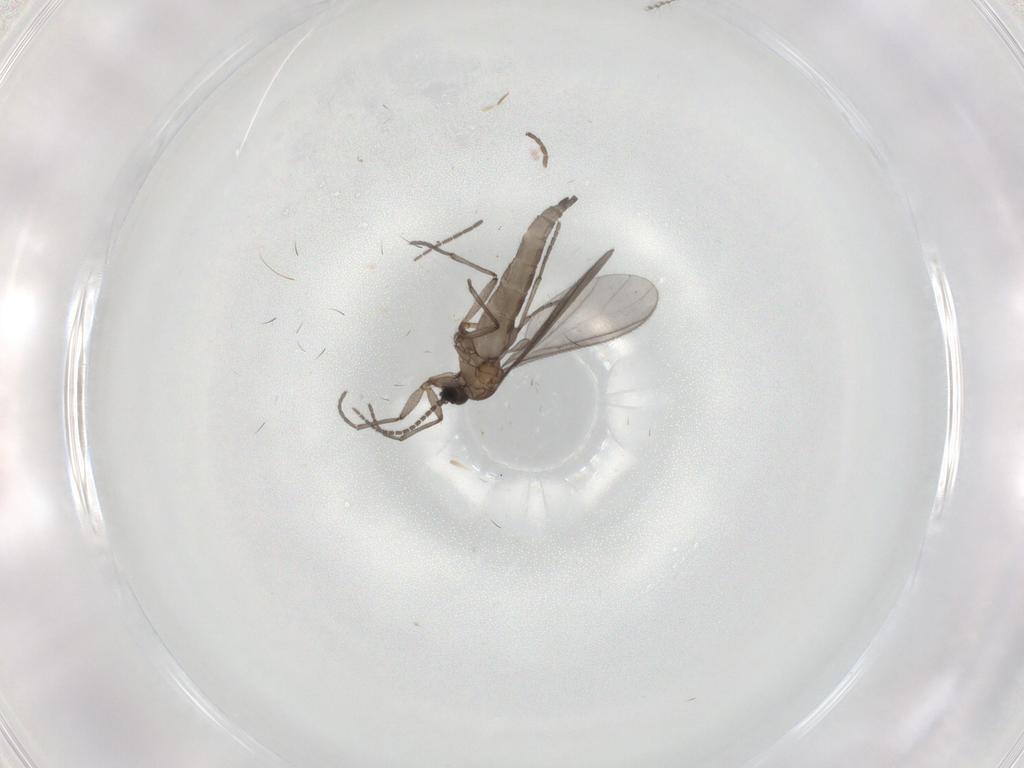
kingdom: Animalia
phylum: Arthropoda
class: Insecta
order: Diptera
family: Sciaridae
